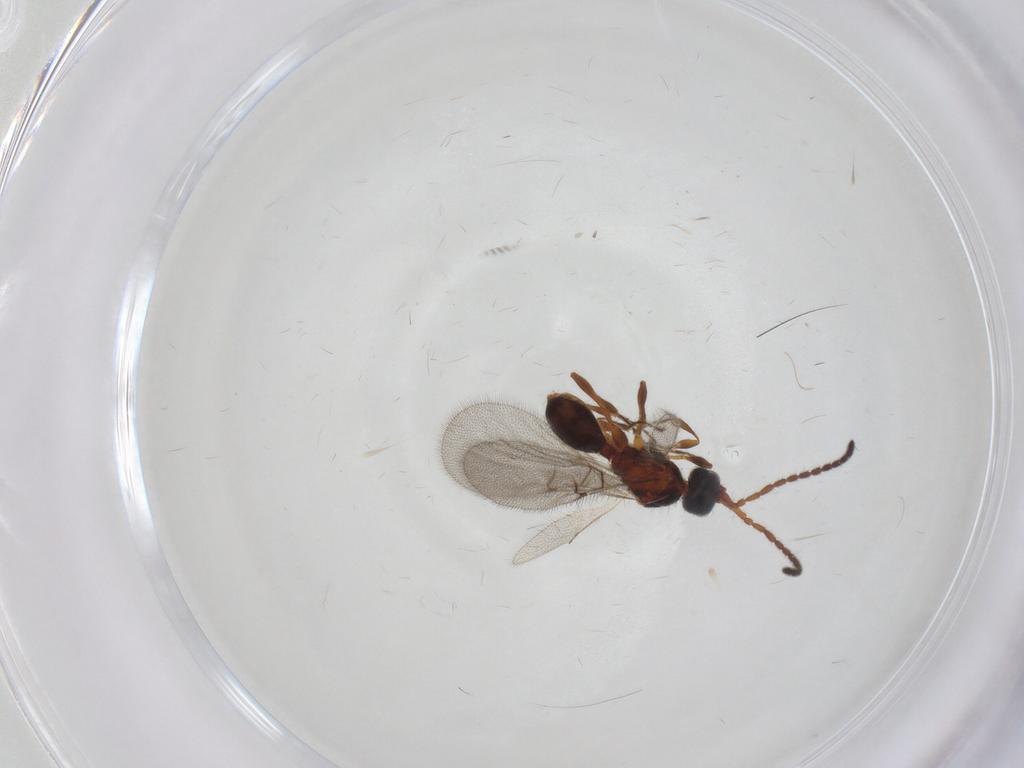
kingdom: Animalia
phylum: Arthropoda
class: Insecta
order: Hymenoptera
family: Diapriidae
